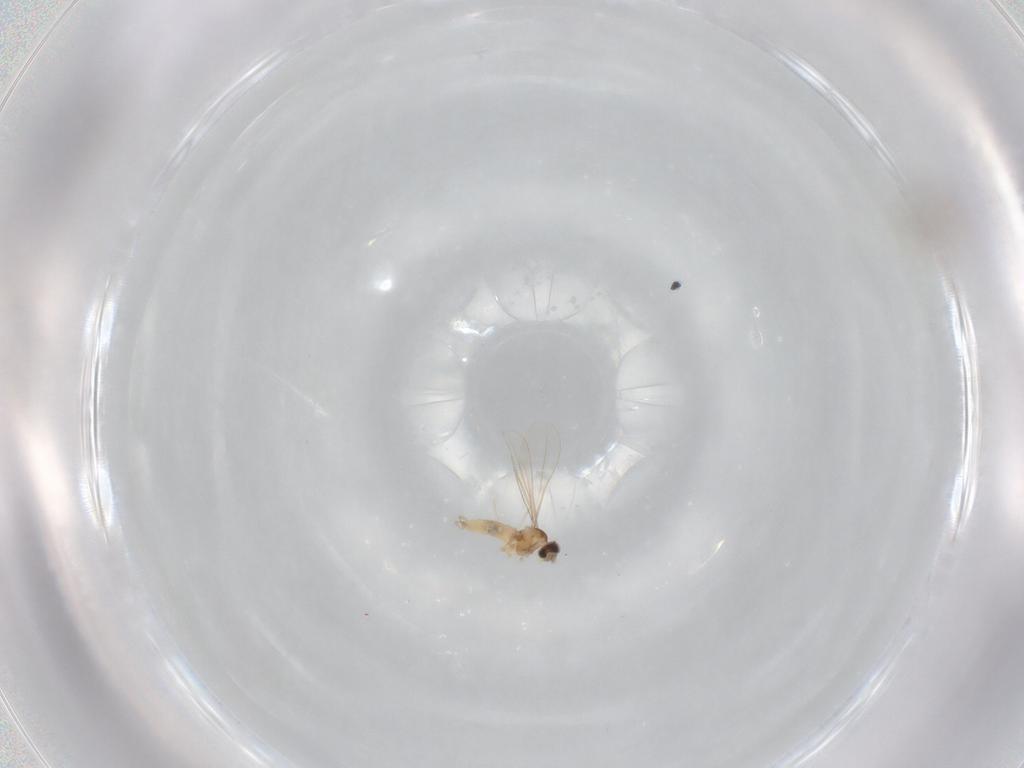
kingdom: Animalia
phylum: Arthropoda
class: Insecta
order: Diptera
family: Cecidomyiidae
